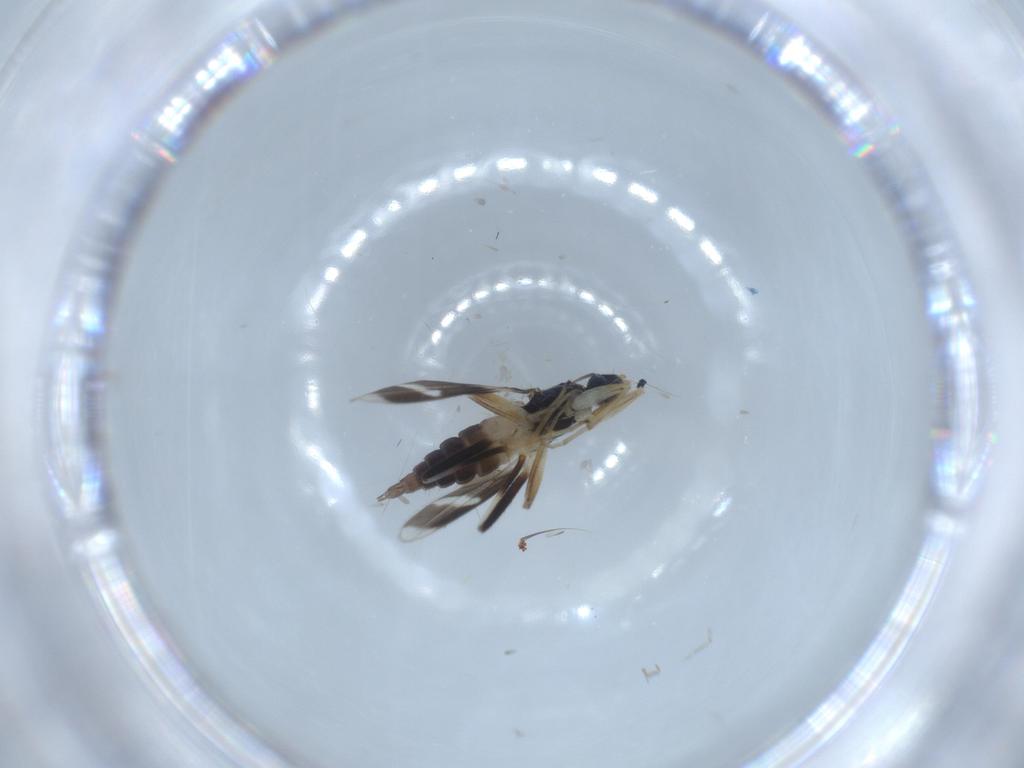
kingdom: Animalia
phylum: Arthropoda
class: Insecta
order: Diptera
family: Hybotidae
